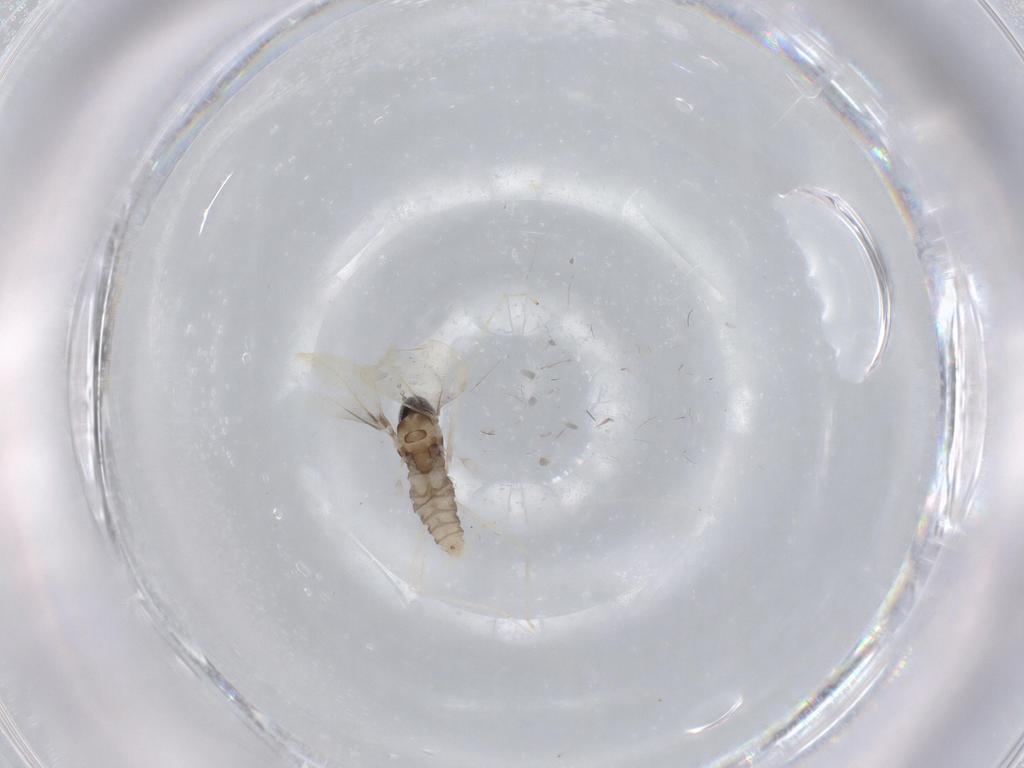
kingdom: Animalia
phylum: Arthropoda
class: Insecta
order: Diptera
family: Cecidomyiidae
